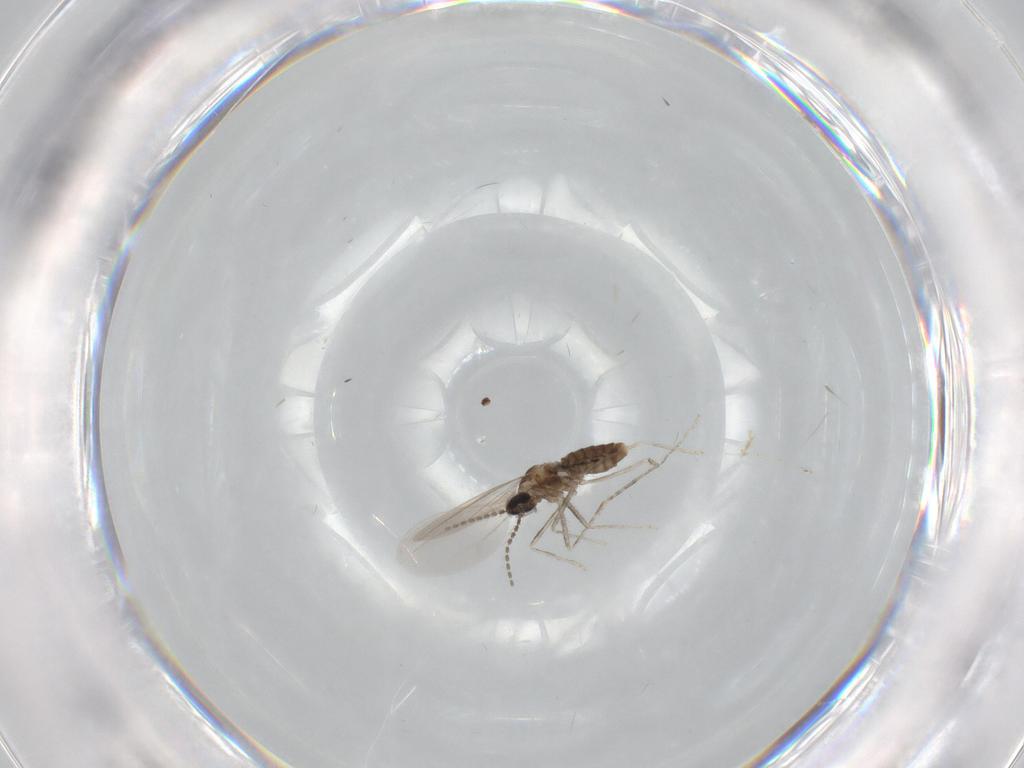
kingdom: Animalia
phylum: Arthropoda
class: Insecta
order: Diptera
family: Cecidomyiidae
